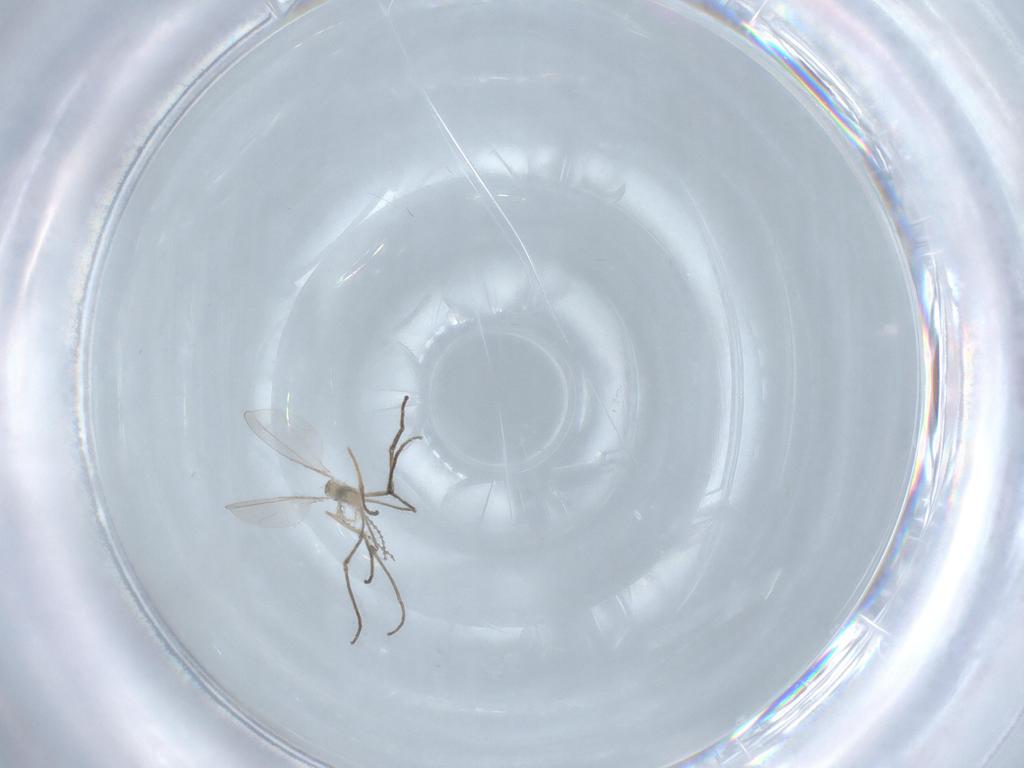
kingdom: Animalia
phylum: Arthropoda
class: Insecta
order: Diptera
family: Cecidomyiidae
